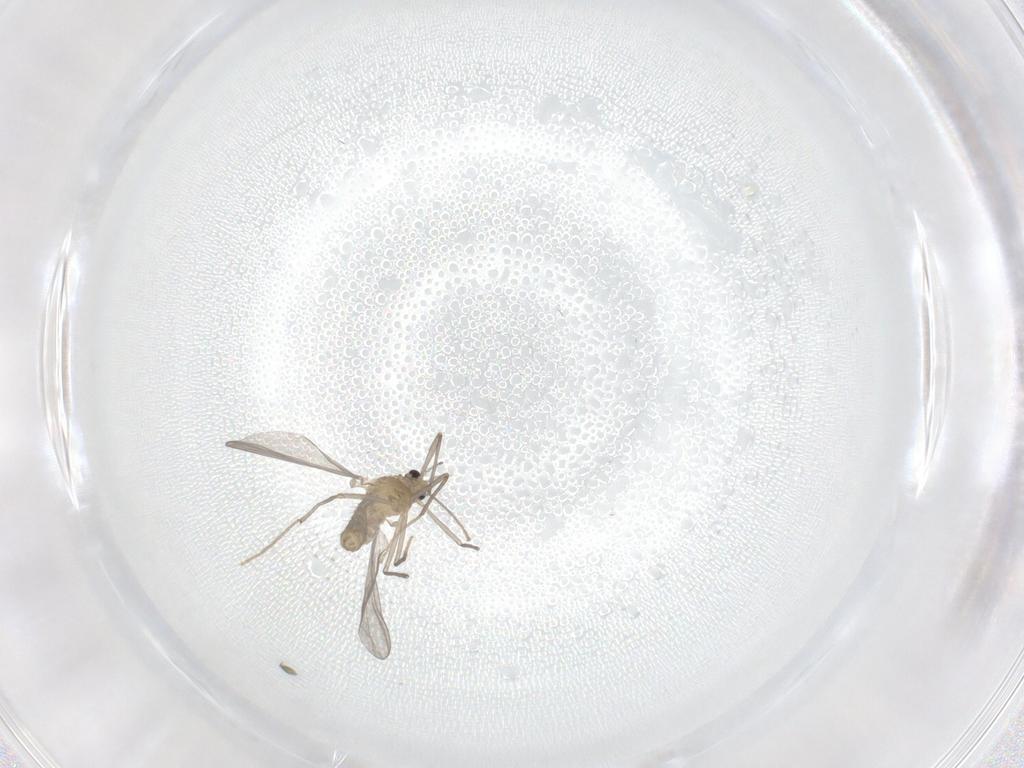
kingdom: Animalia
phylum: Arthropoda
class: Insecta
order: Diptera
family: Chironomidae
